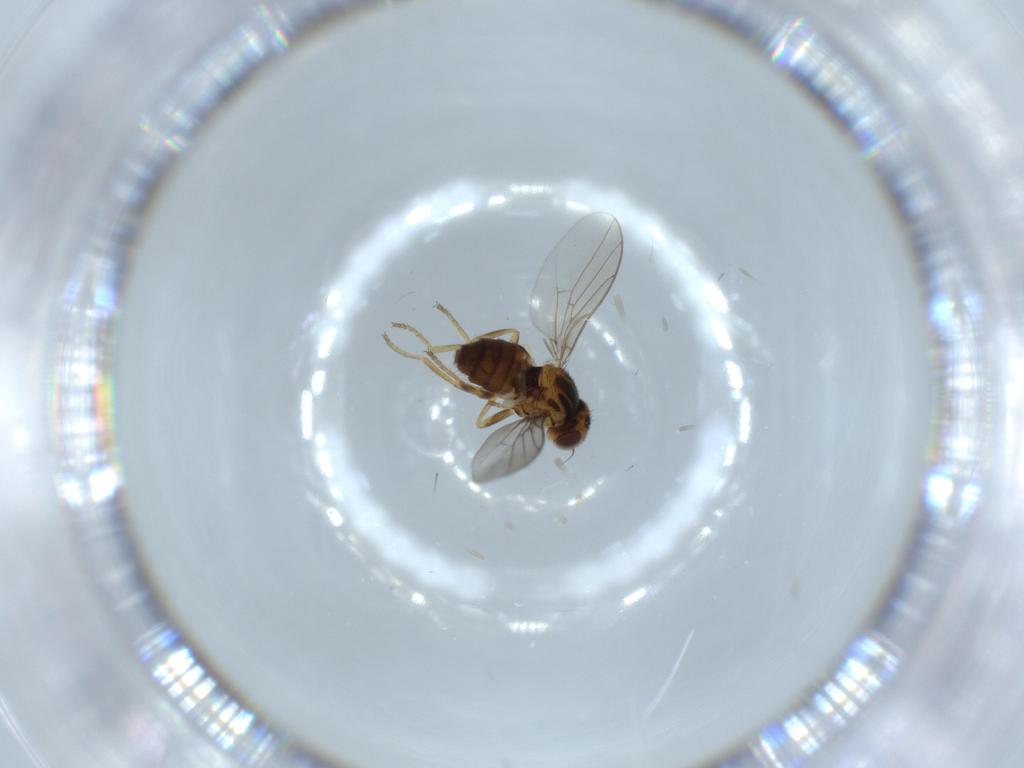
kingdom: Animalia
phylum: Arthropoda
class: Insecta
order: Diptera
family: Chloropidae
